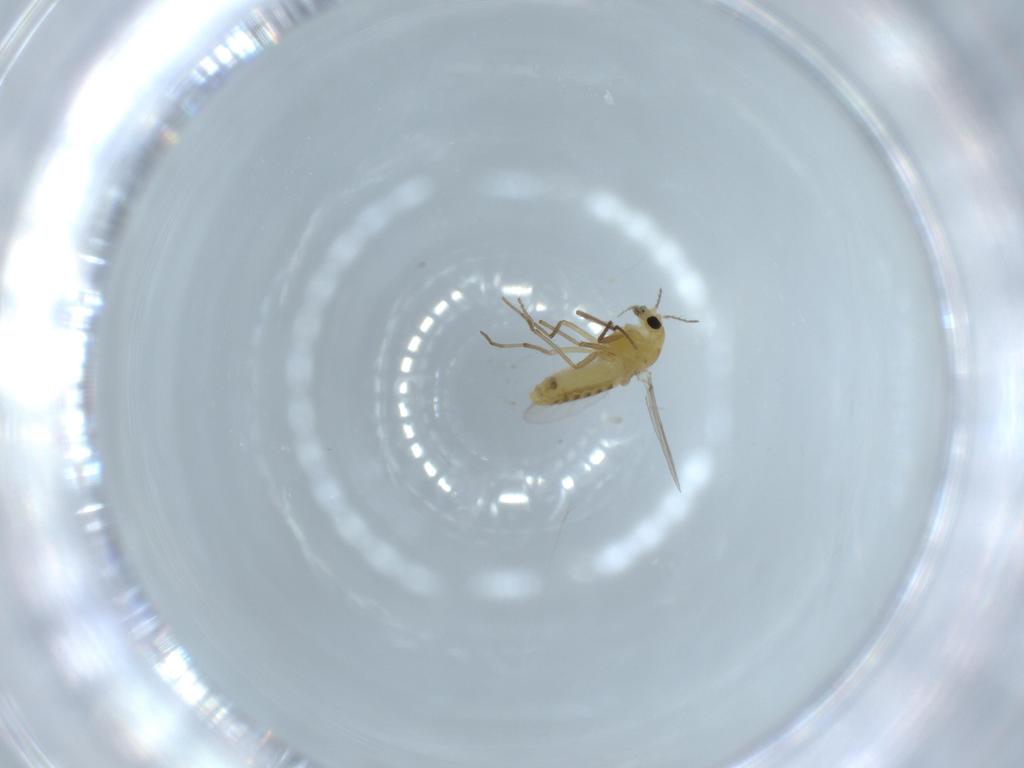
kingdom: Animalia
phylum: Arthropoda
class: Insecta
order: Diptera
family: Chironomidae
